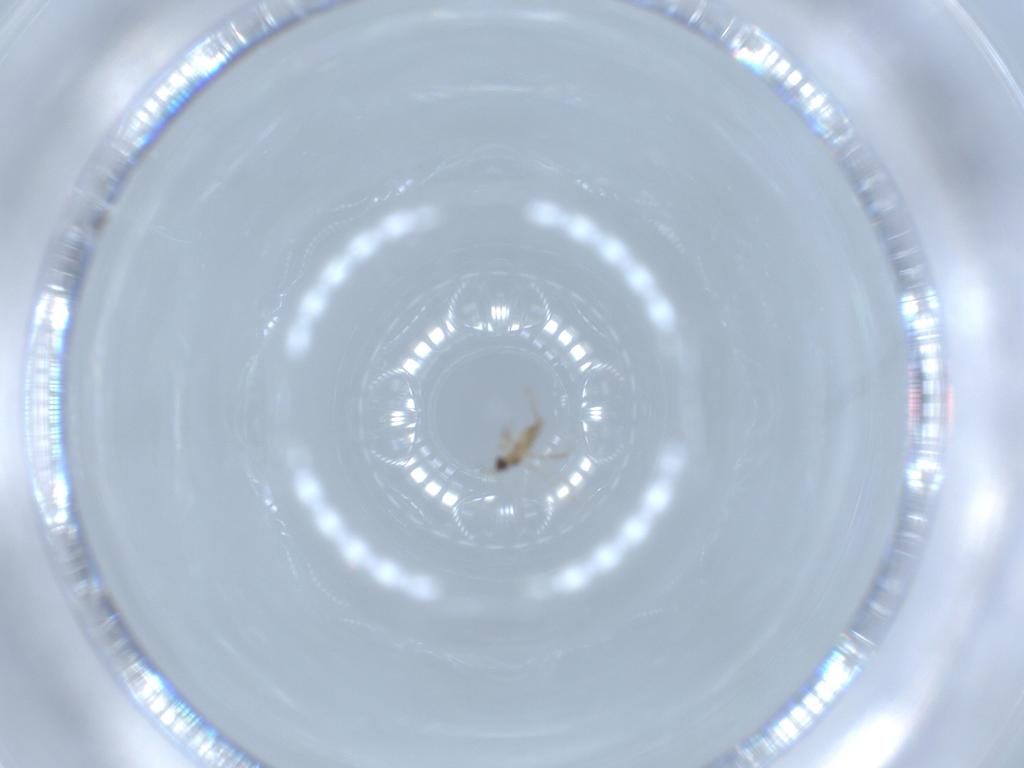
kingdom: Animalia
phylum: Arthropoda
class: Insecta
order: Hymenoptera
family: Mymaridae
